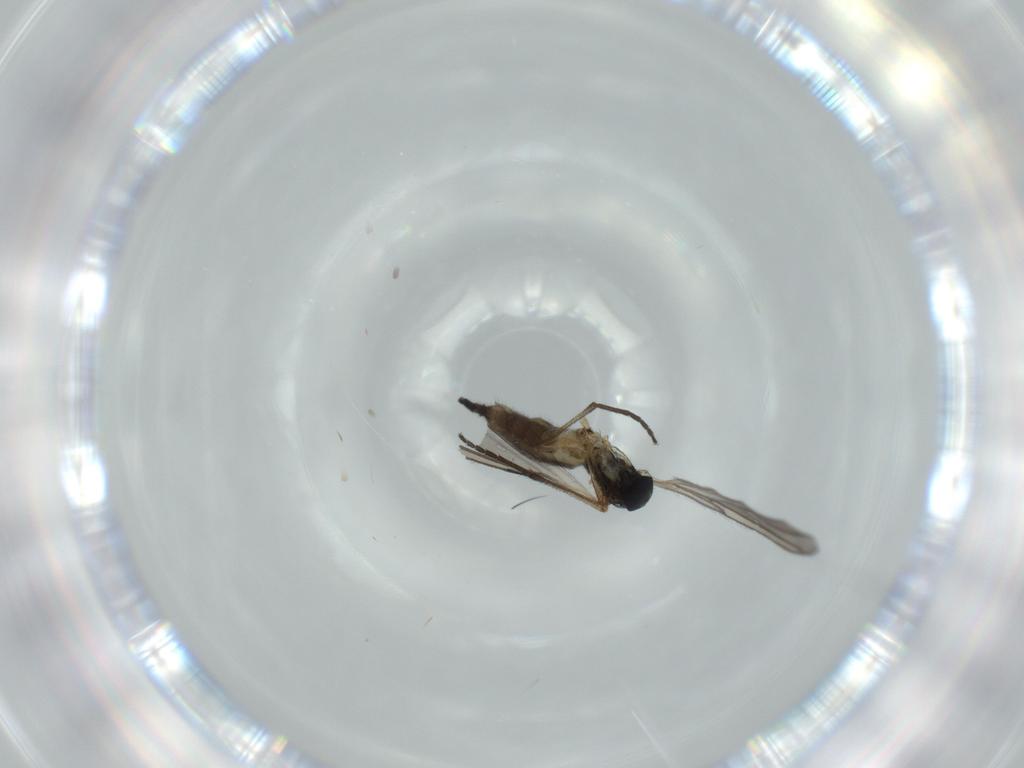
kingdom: Animalia
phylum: Arthropoda
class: Insecta
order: Diptera
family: Sciaridae
